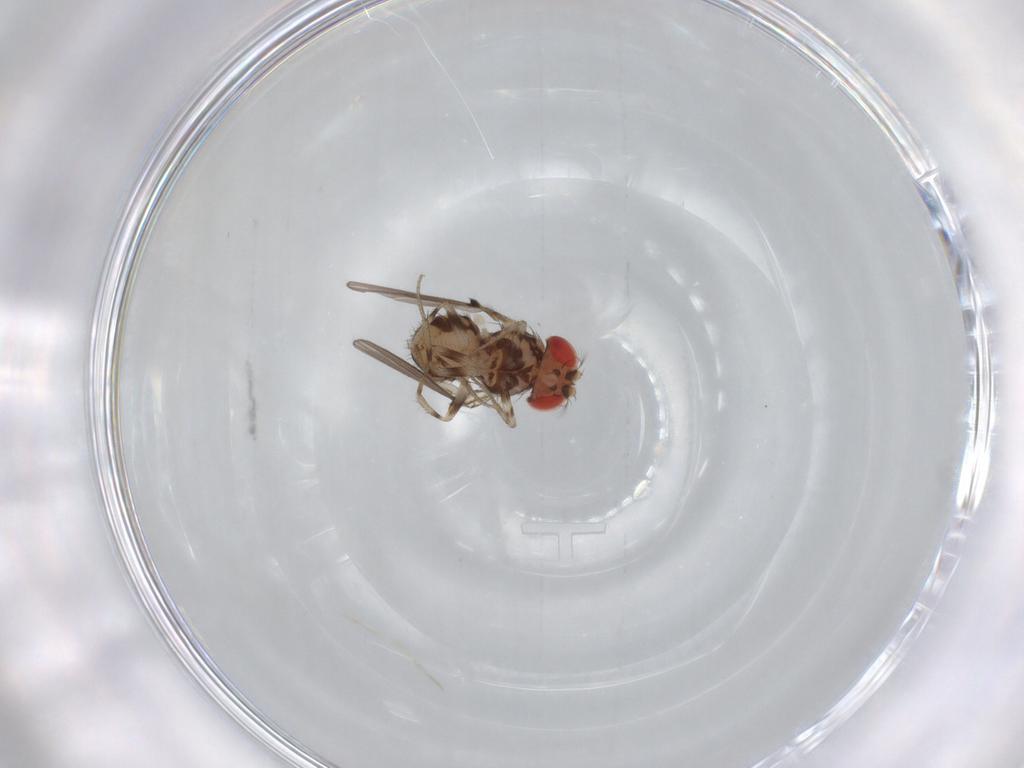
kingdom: Animalia
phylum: Arthropoda
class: Insecta
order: Diptera
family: Drosophilidae
